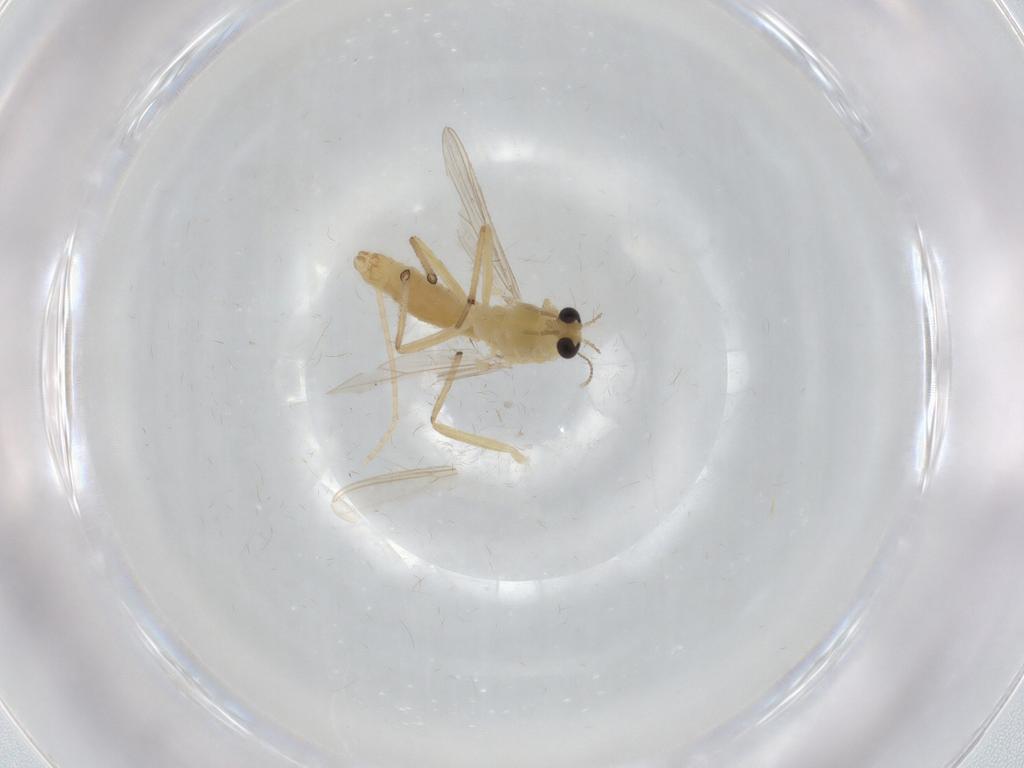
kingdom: Animalia
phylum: Arthropoda
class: Insecta
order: Diptera
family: Chironomidae
